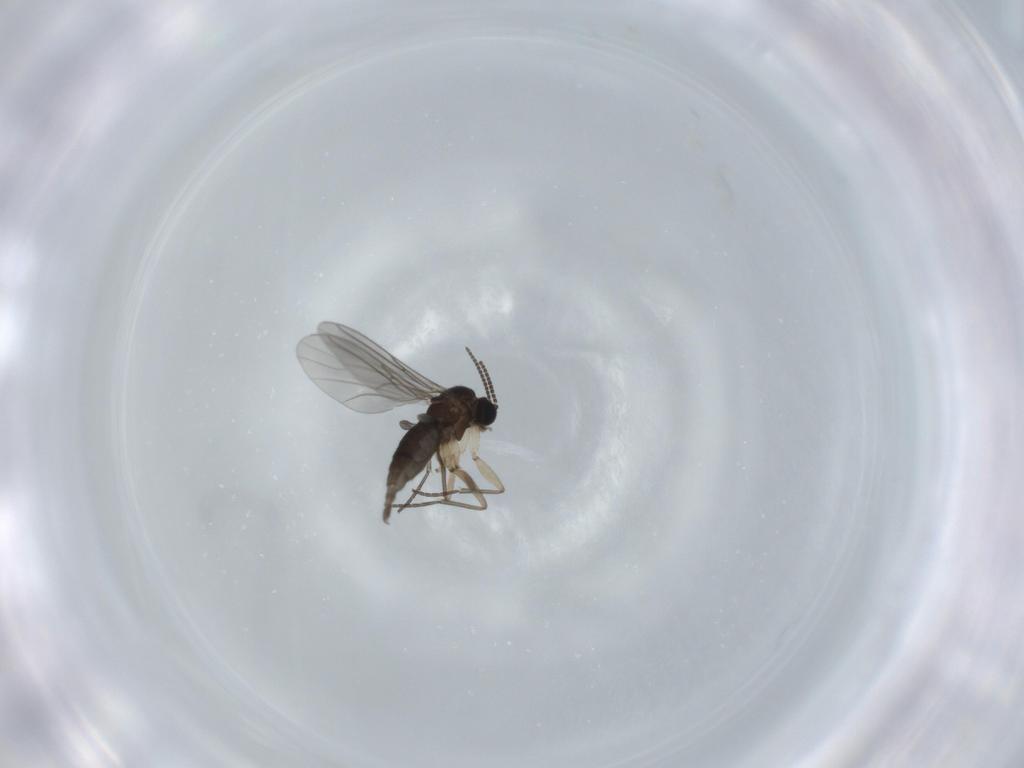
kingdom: Animalia
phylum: Arthropoda
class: Insecta
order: Diptera
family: Sciaridae
